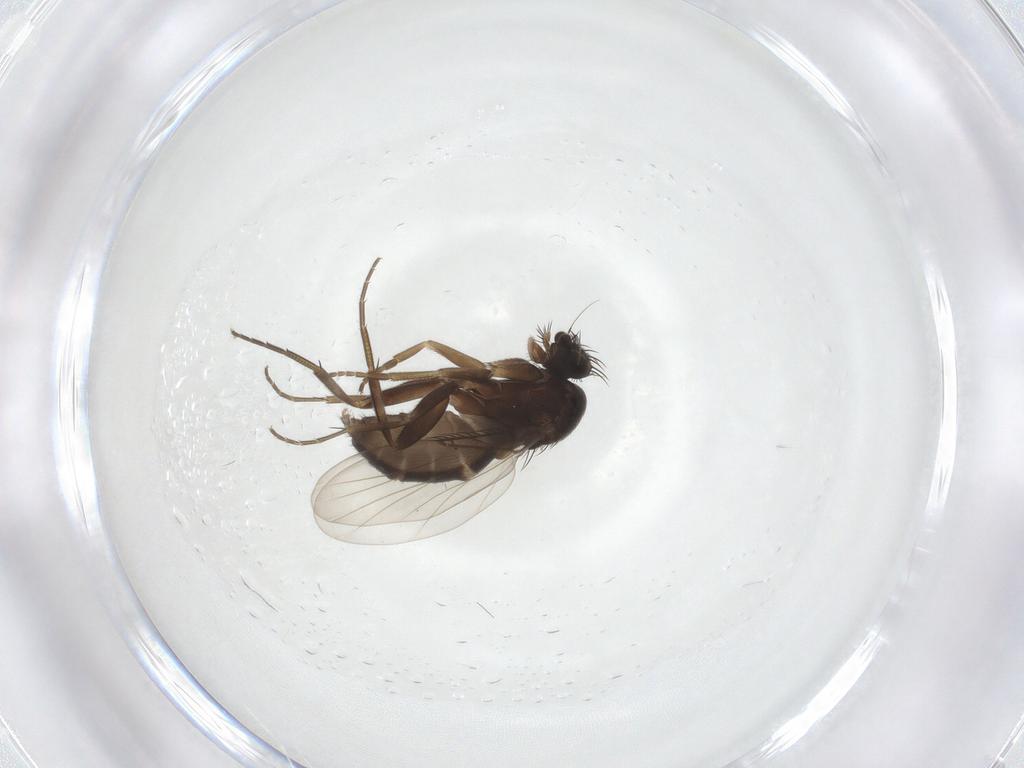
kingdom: Animalia
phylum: Arthropoda
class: Insecta
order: Diptera
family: Phoridae
